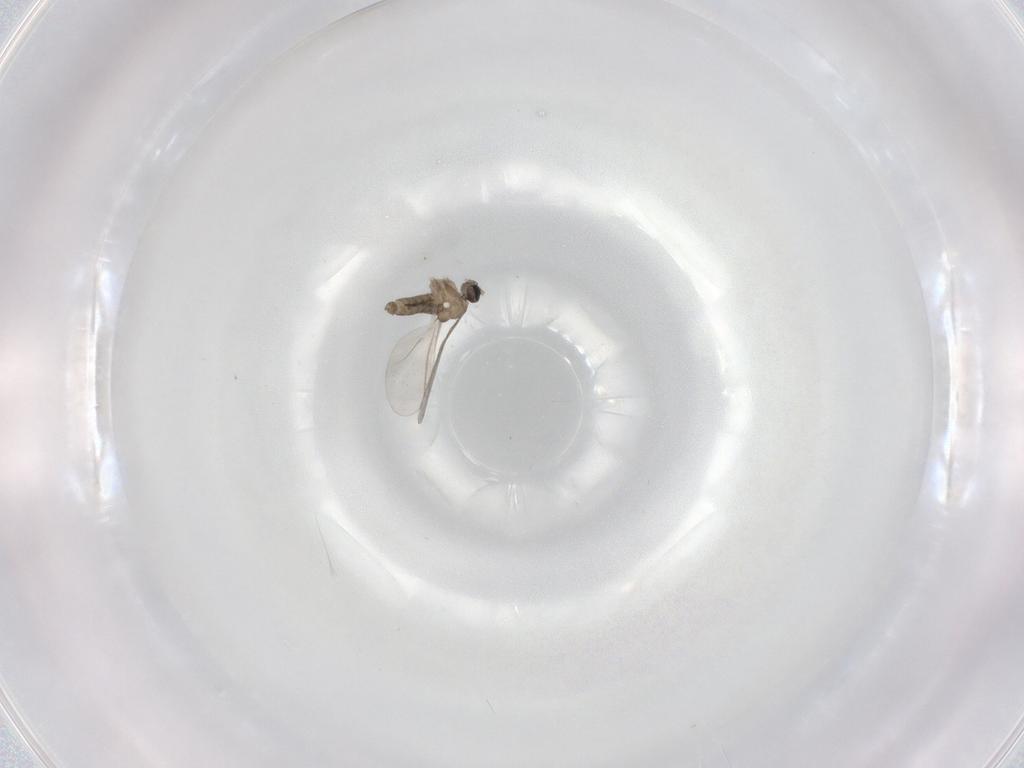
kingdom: Animalia
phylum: Arthropoda
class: Insecta
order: Diptera
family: Cecidomyiidae
